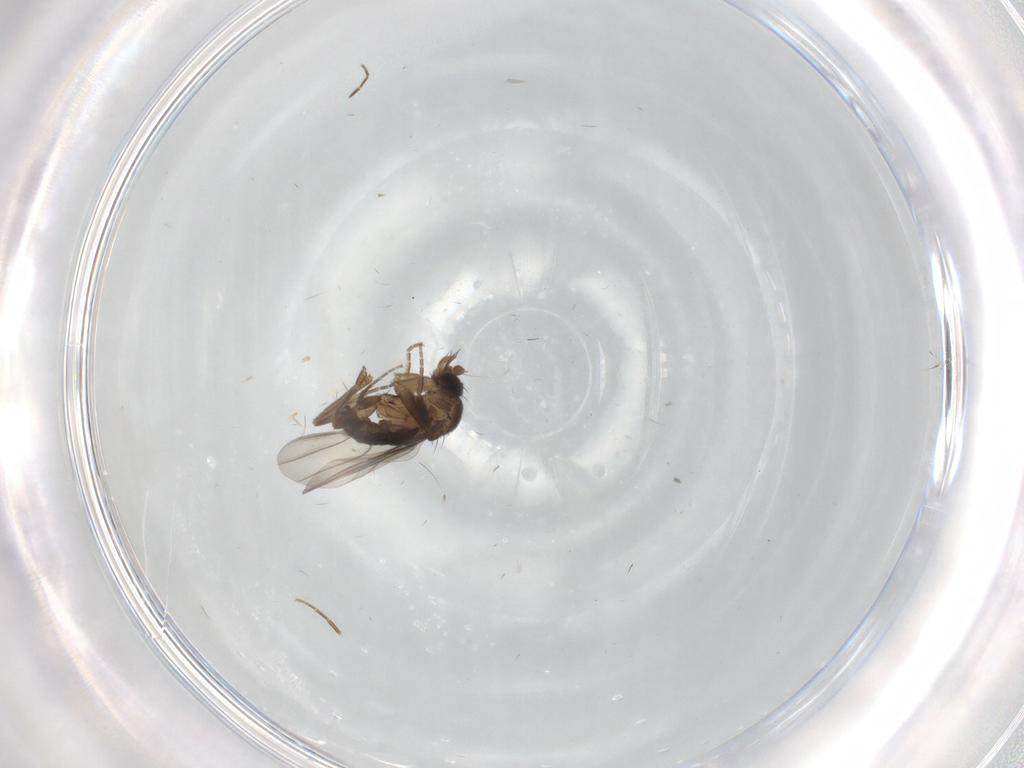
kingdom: Animalia
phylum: Arthropoda
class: Insecta
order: Diptera
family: Cecidomyiidae
